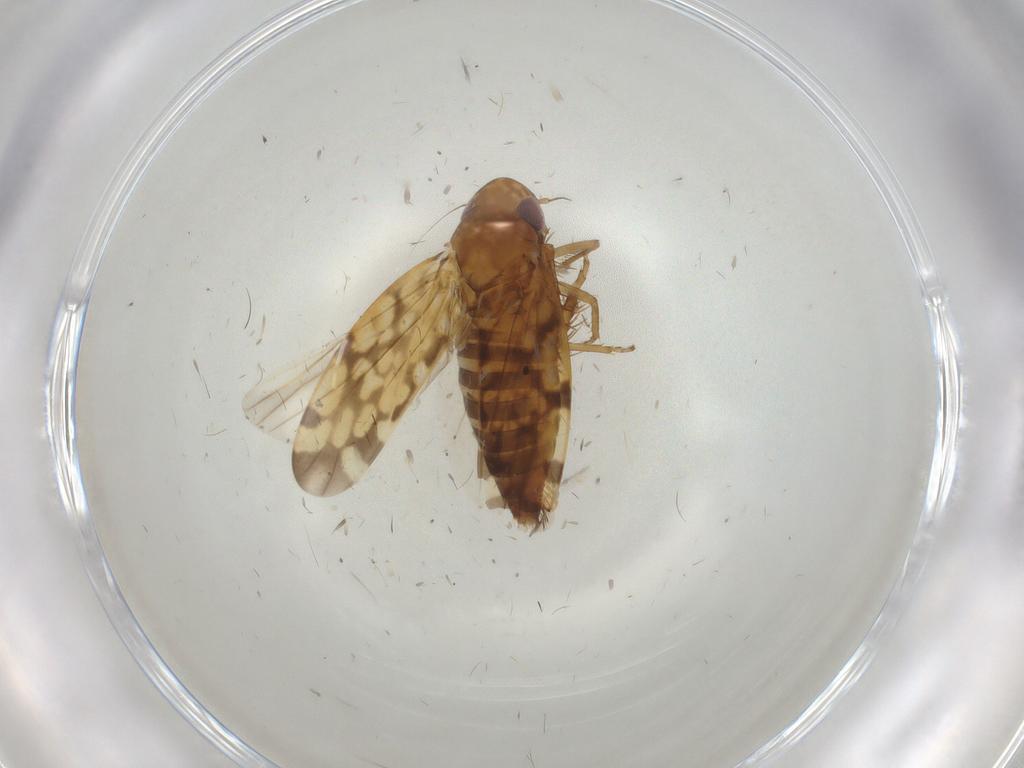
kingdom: Animalia
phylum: Arthropoda
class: Insecta
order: Hemiptera
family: Cicadellidae
